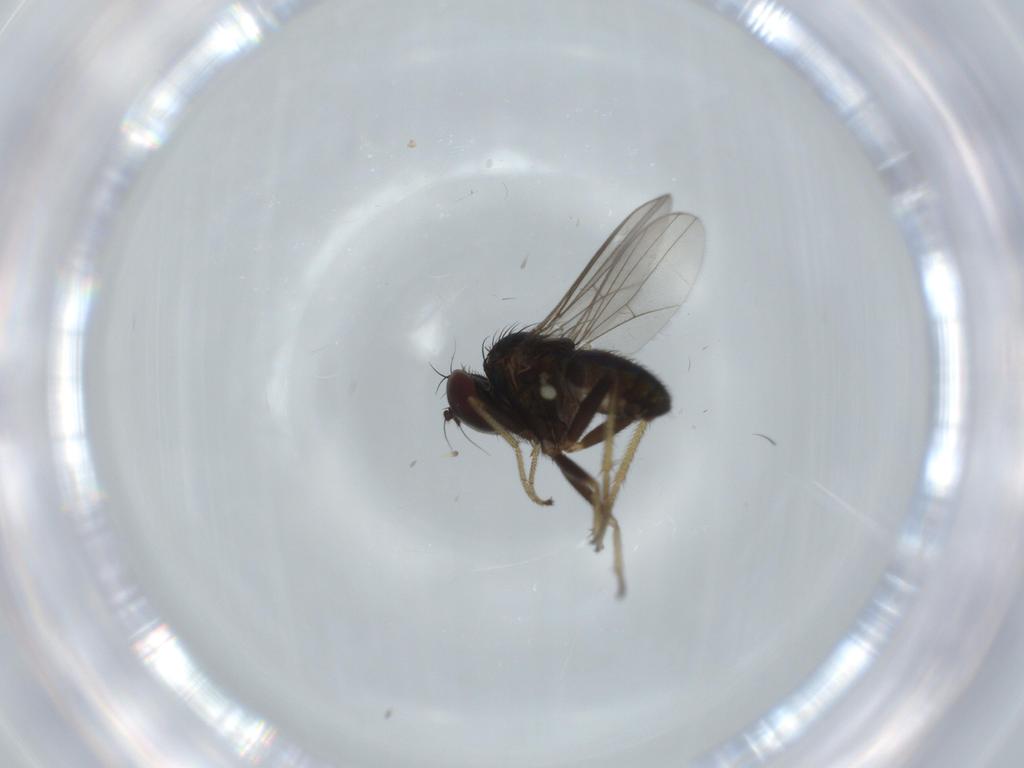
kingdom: Animalia
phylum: Arthropoda
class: Insecta
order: Diptera
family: Dolichopodidae
